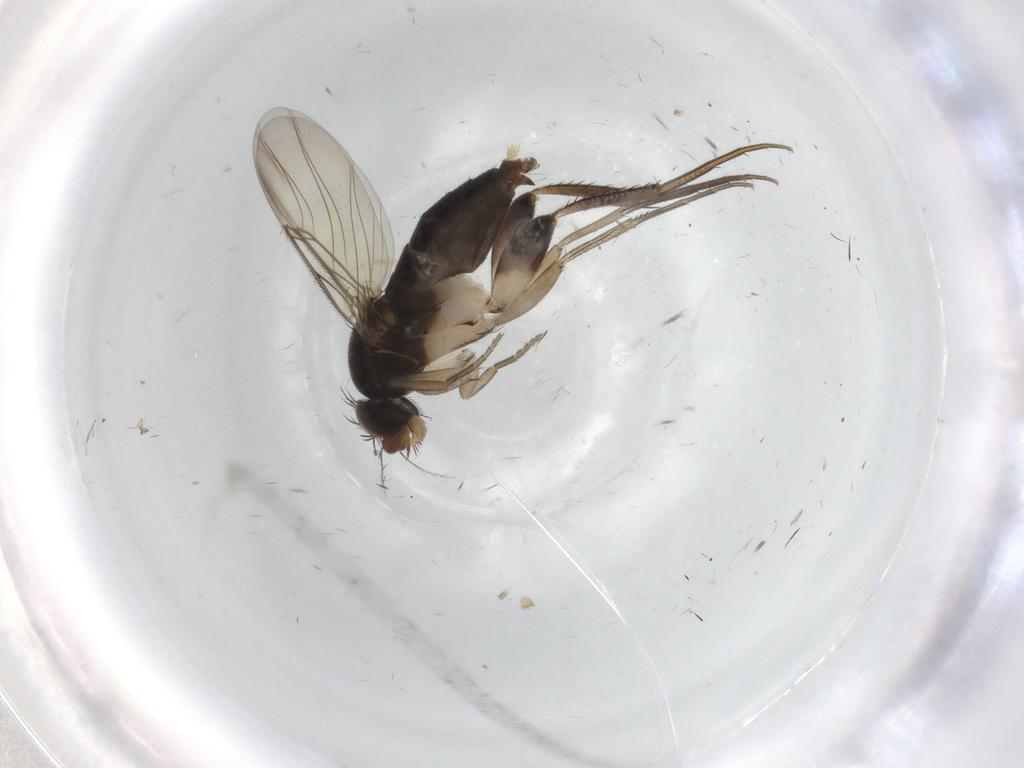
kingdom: Animalia
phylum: Arthropoda
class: Insecta
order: Diptera
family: Phoridae
